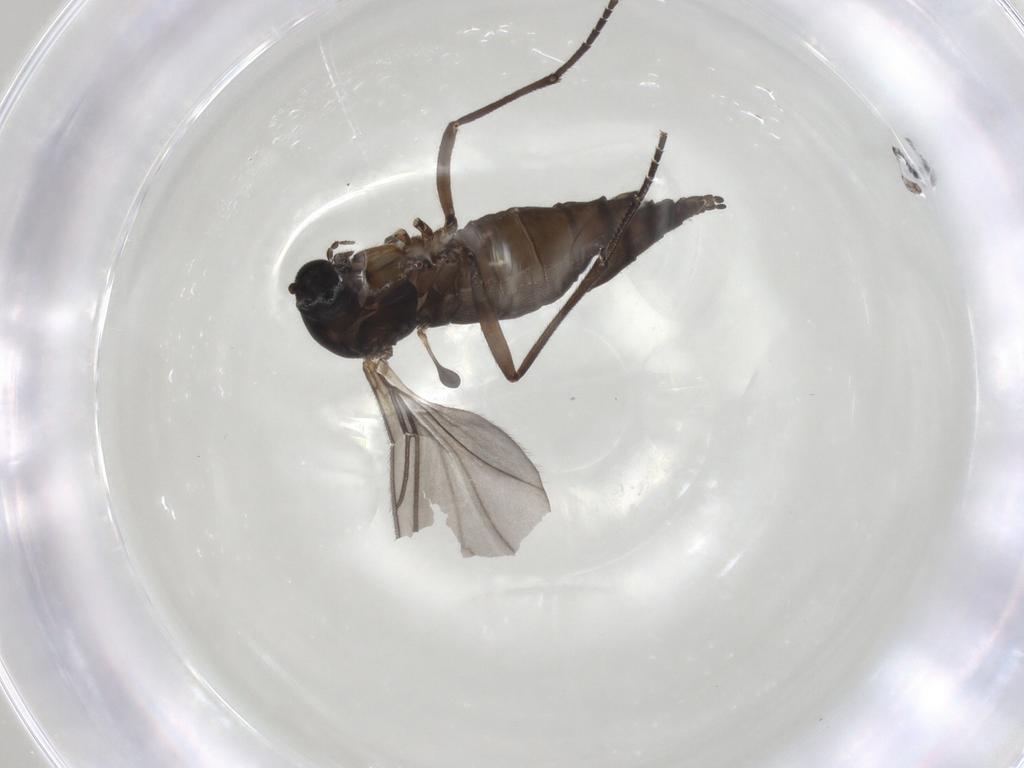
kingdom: Animalia
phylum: Arthropoda
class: Insecta
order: Diptera
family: Sciaridae
